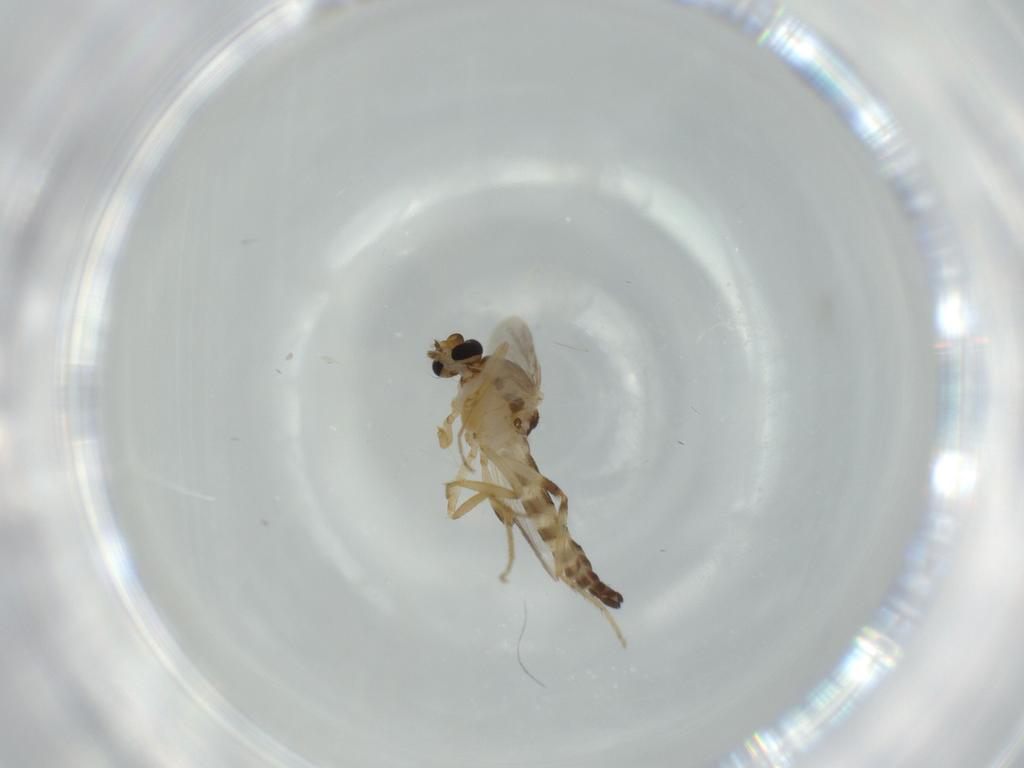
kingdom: Animalia
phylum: Arthropoda
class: Insecta
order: Diptera
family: Ceratopogonidae
